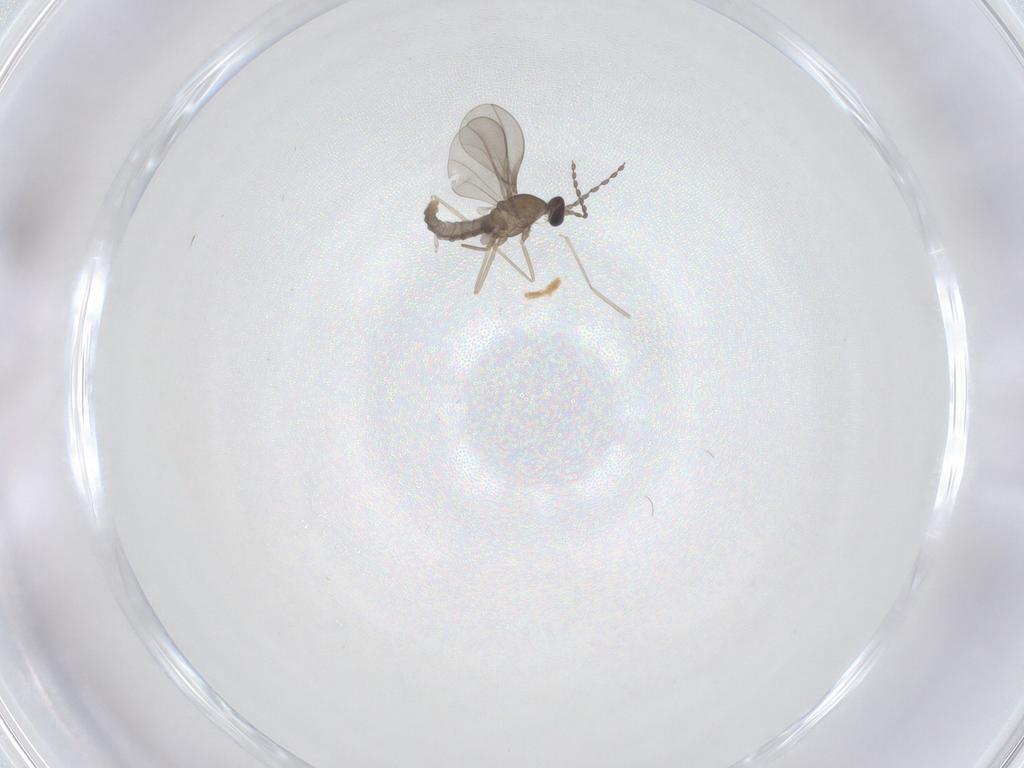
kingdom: Animalia
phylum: Arthropoda
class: Insecta
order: Diptera
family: Cecidomyiidae
